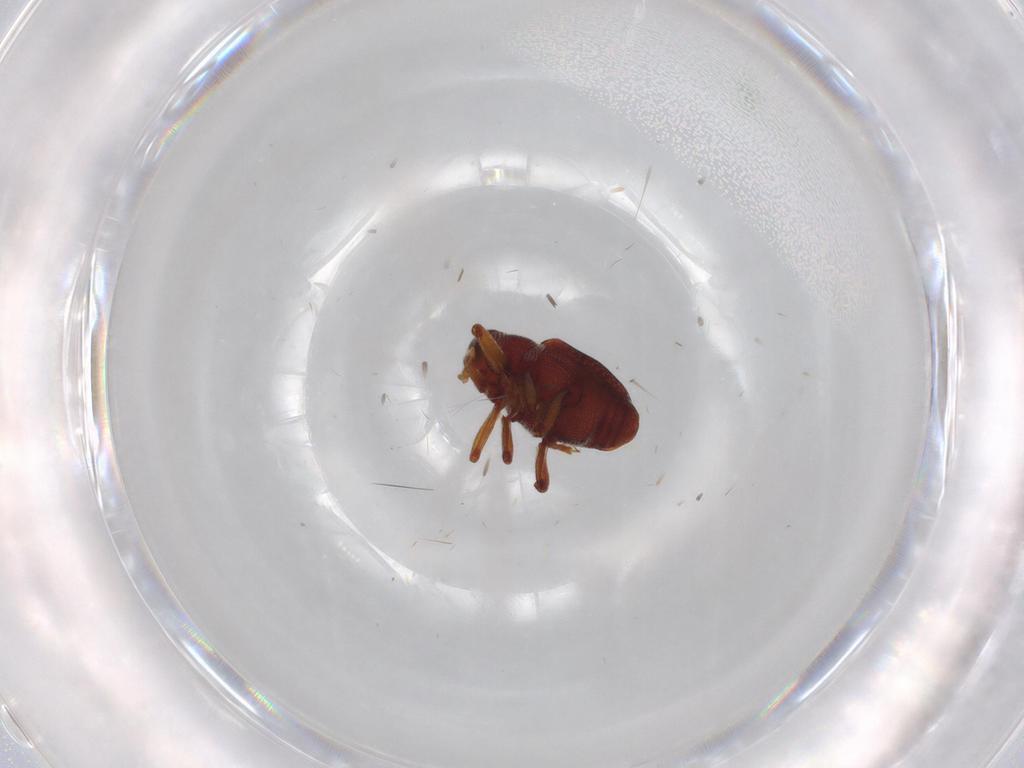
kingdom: Animalia
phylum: Arthropoda
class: Insecta
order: Coleoptera
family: Curculionidae
